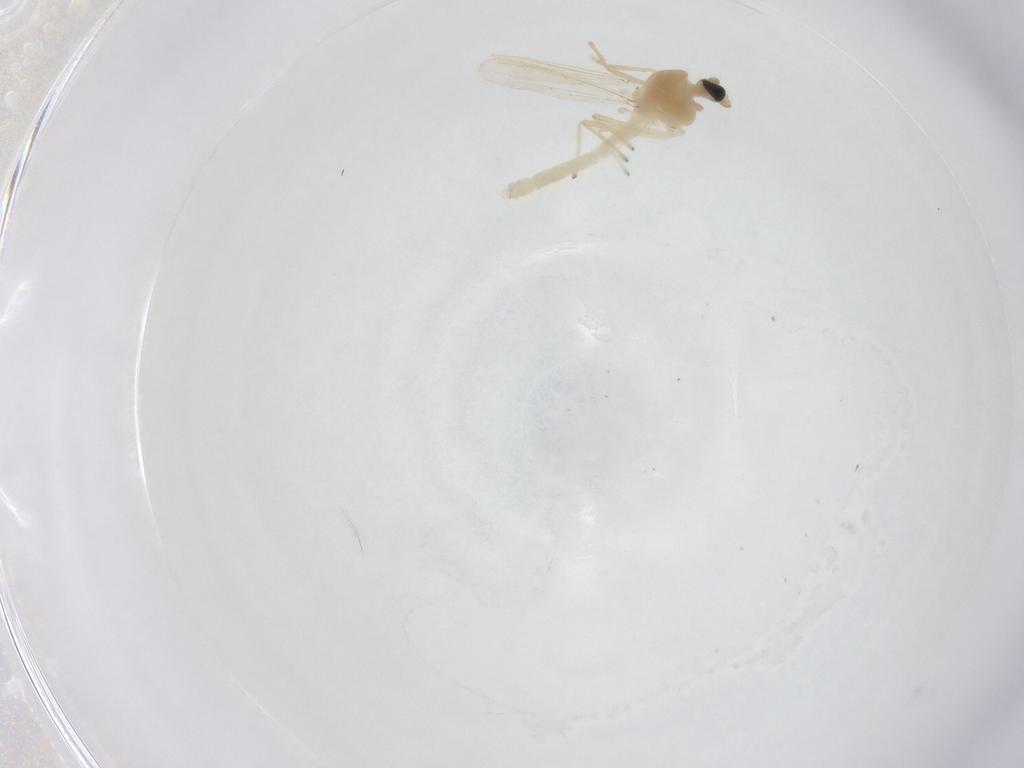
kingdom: Animalia
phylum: Arthropoda
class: Insecta
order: Diptera
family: Chironomidae
